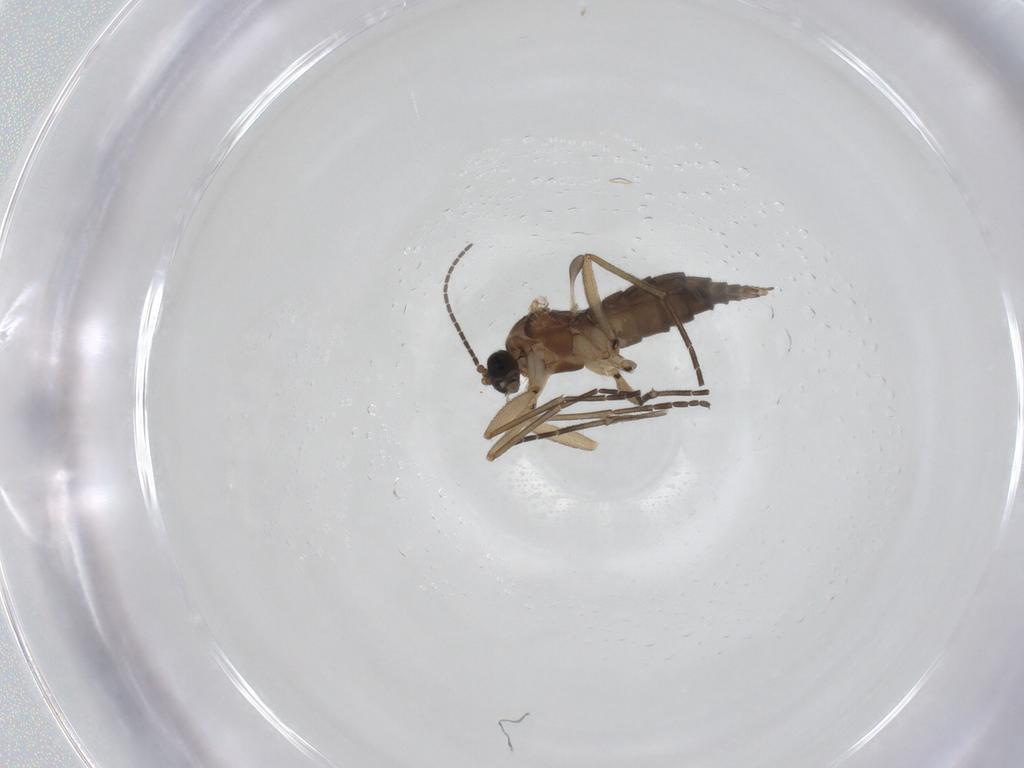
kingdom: Animalia
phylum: Arthropoda
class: Insecta
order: Diptera
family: Sciaridae
